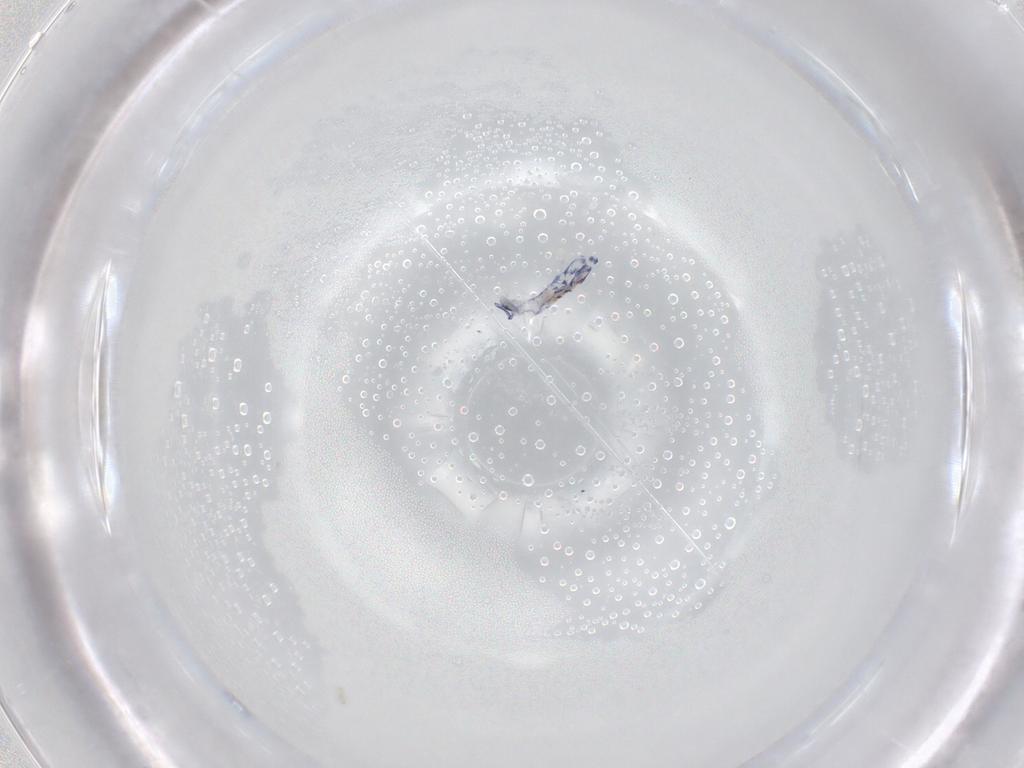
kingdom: Animalia
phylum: Arthropoda
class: Collembola
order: Entomobryomorpha
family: Entomobryidae
